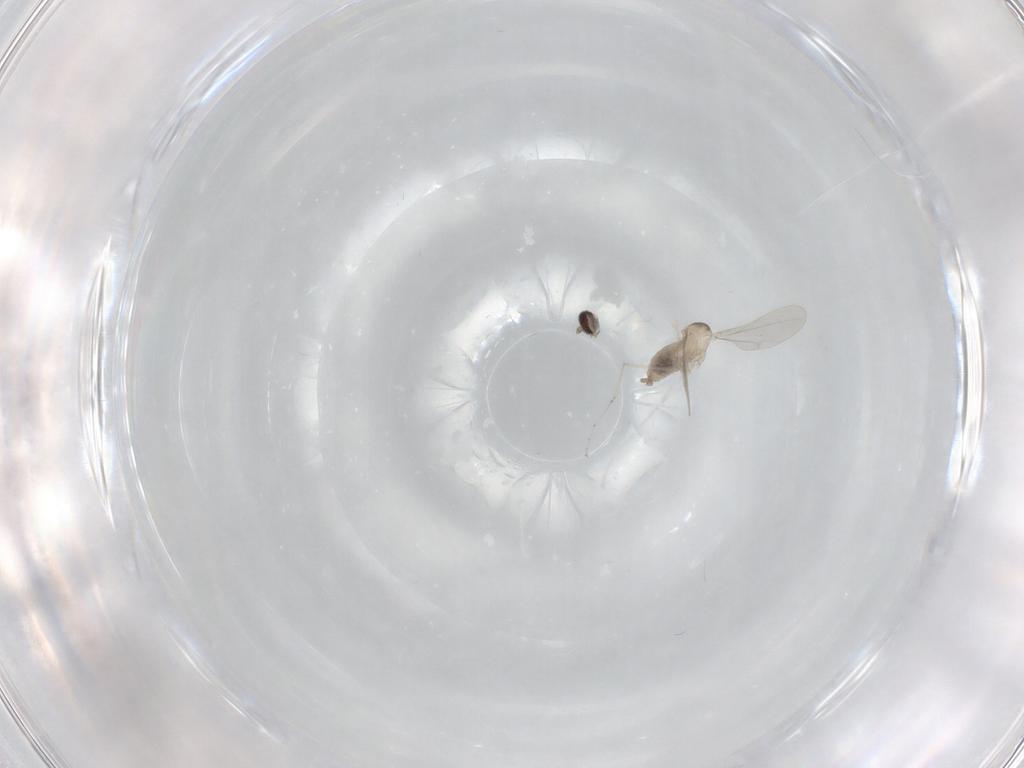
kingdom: Animalia
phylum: Arthropoda
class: Insecta
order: Diptera
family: Cecidomyiidae
